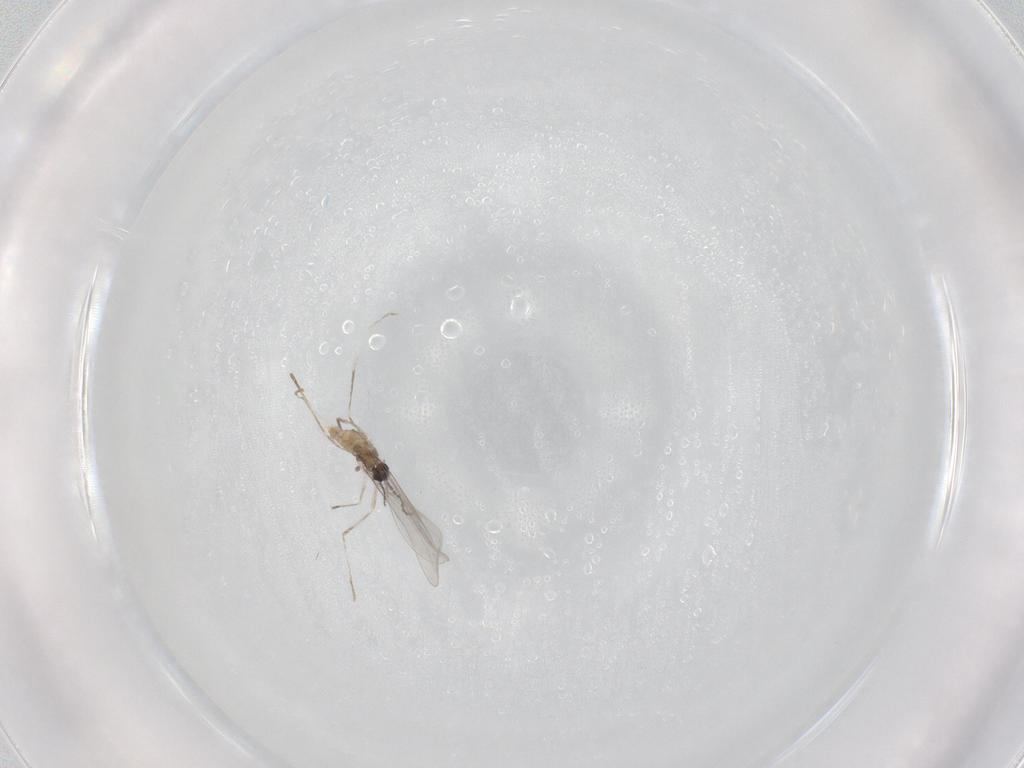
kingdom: Animalia
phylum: Arthropoda
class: Insecta
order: Diptera
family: Cecidomyiidae
